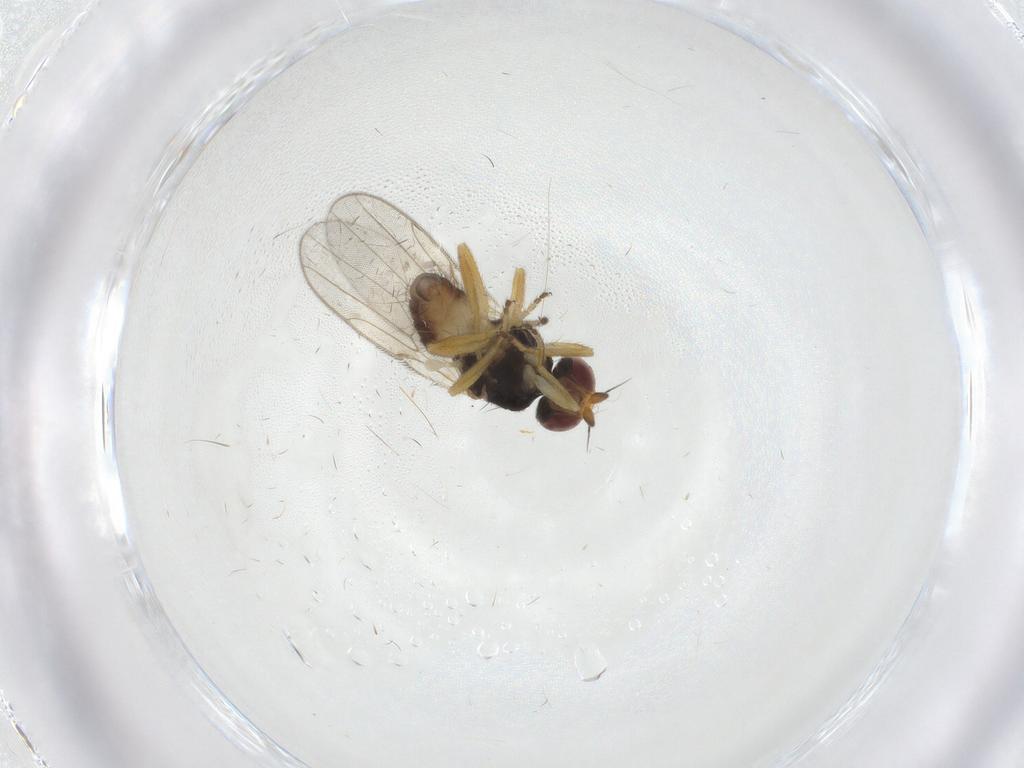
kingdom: Animalia
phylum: Arthropoda
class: Insecta
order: Diptera
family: Chloropidae
